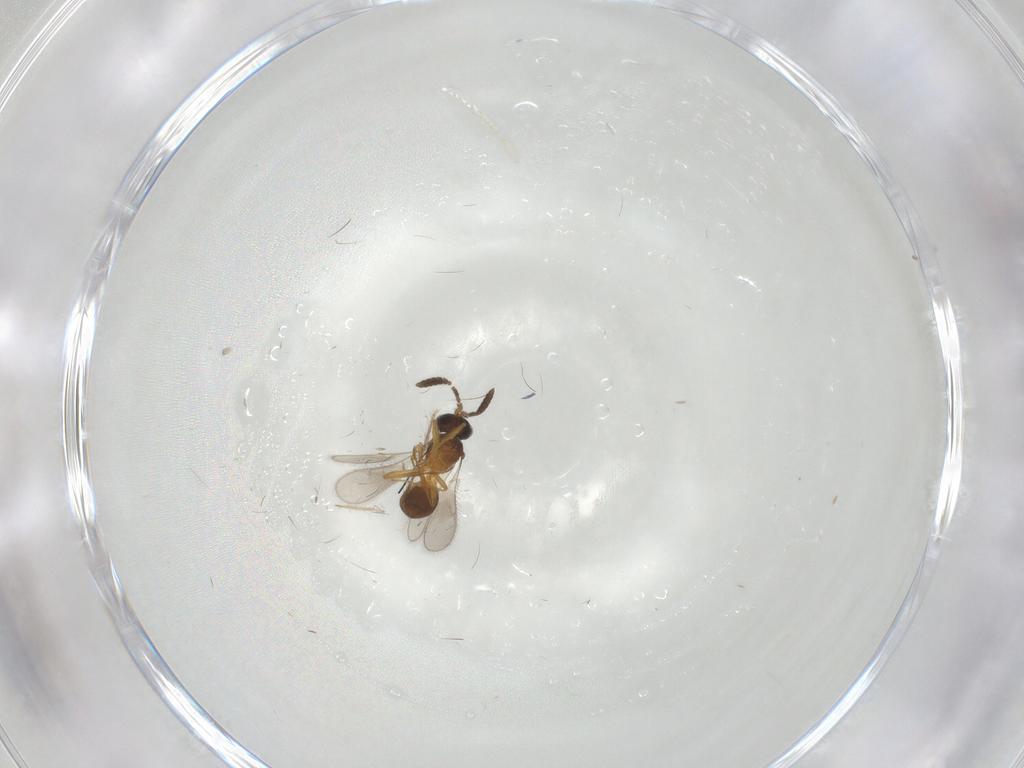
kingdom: Animalia
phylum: Arthropoda
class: Insecta
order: Hymenoptera
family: Scelionidae
